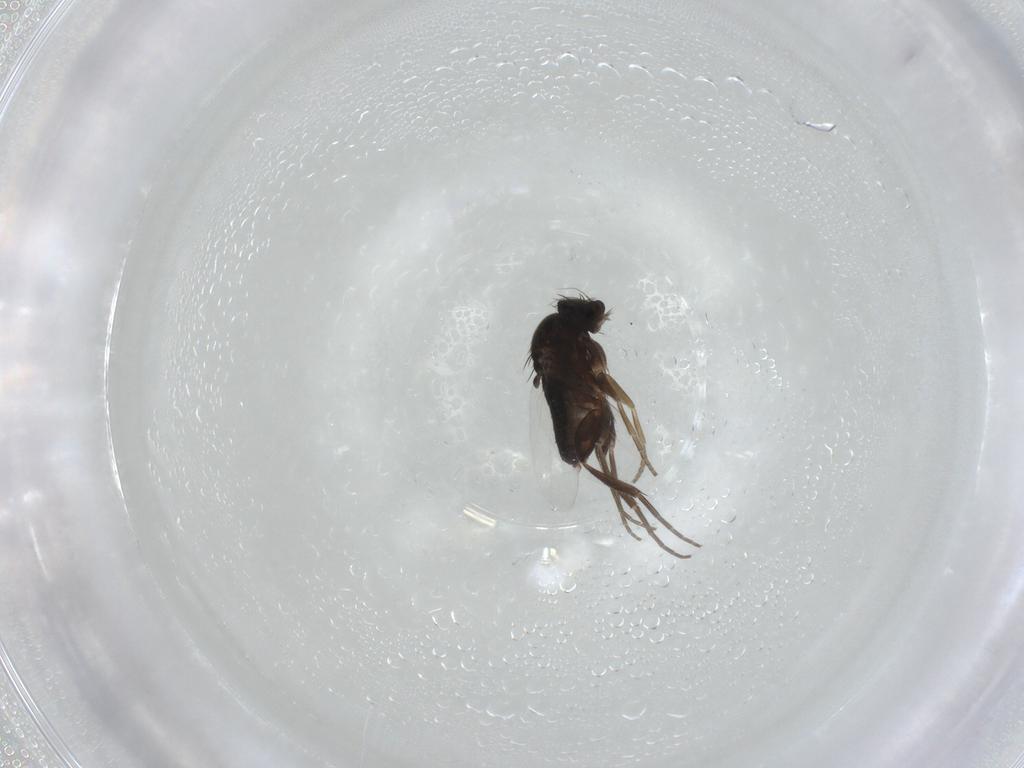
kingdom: Animalia
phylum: Arthropoda
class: Insecta
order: Diptera
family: Phoridae
